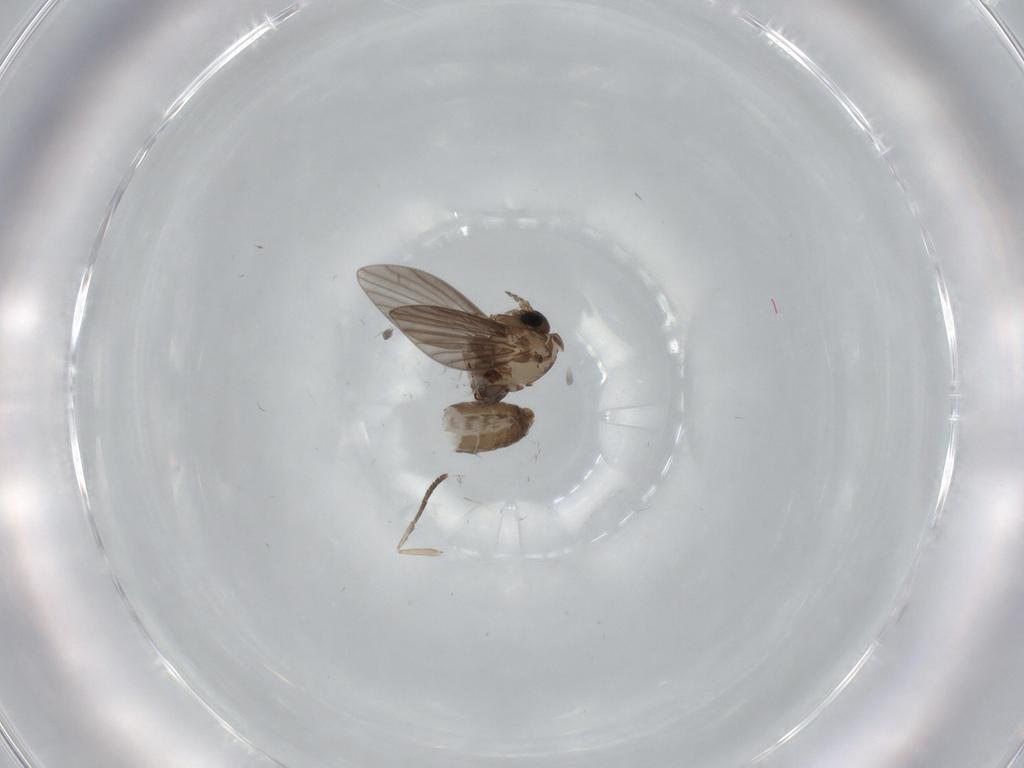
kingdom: Animalia
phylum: Arthropoda
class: Insecta
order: Diptera
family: Psychodidae
